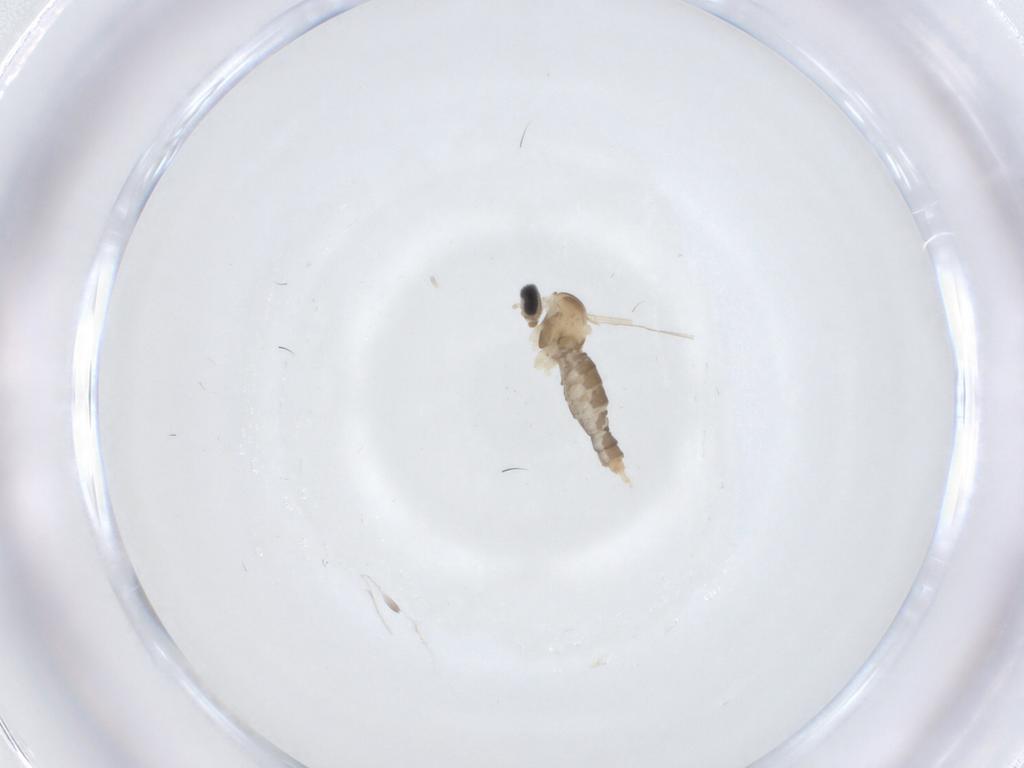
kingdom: Animalia
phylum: Arthropoda
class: Insecta
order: Diptera
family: Cecidomyiidae
